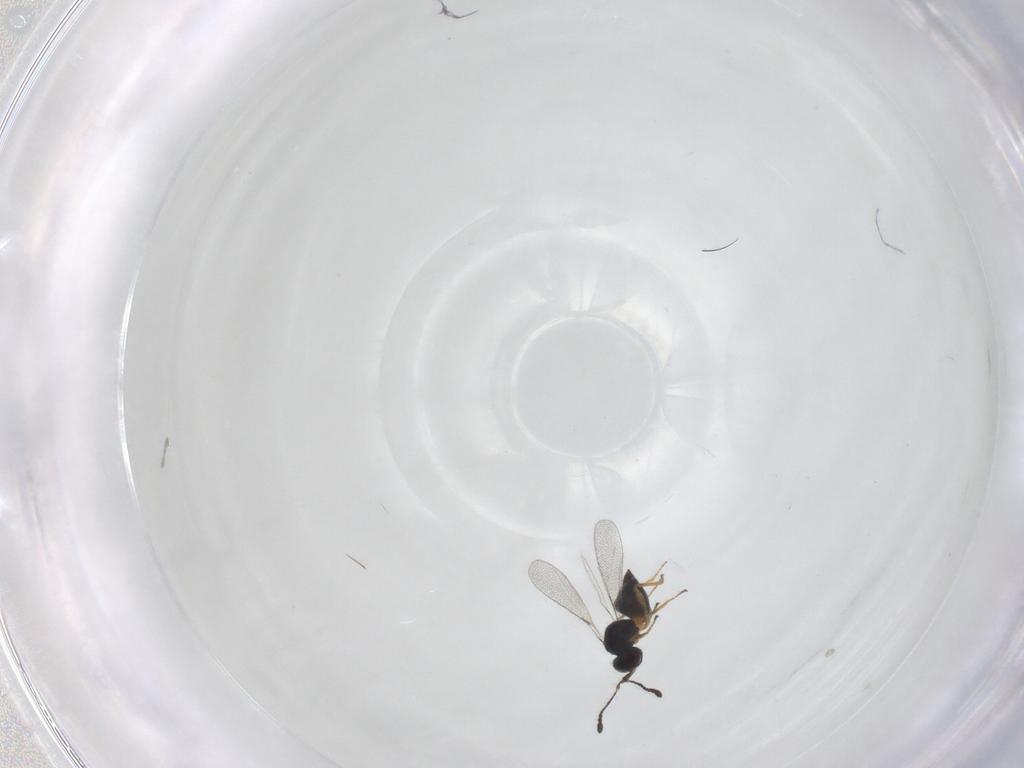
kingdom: Animalia
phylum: Arthropoda
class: Insecta
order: Hymenoptera
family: Mymaridae
